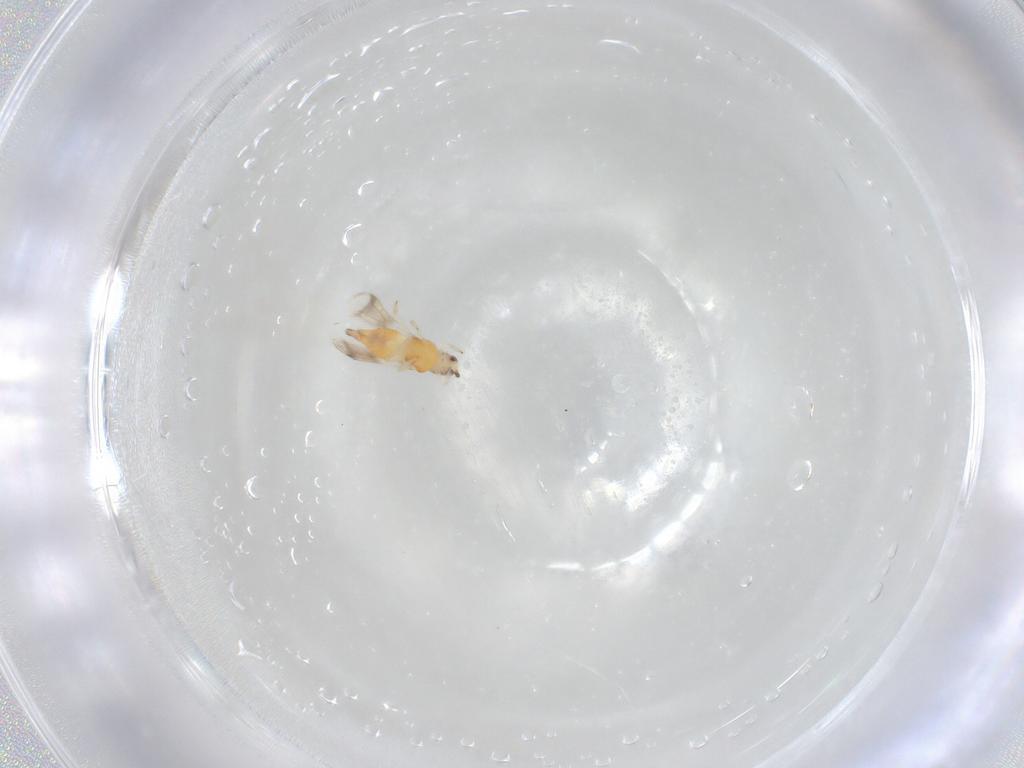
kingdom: Animalia
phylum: Arthropoda
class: Insecta
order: Thysanoptera
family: Aeolothripidae
